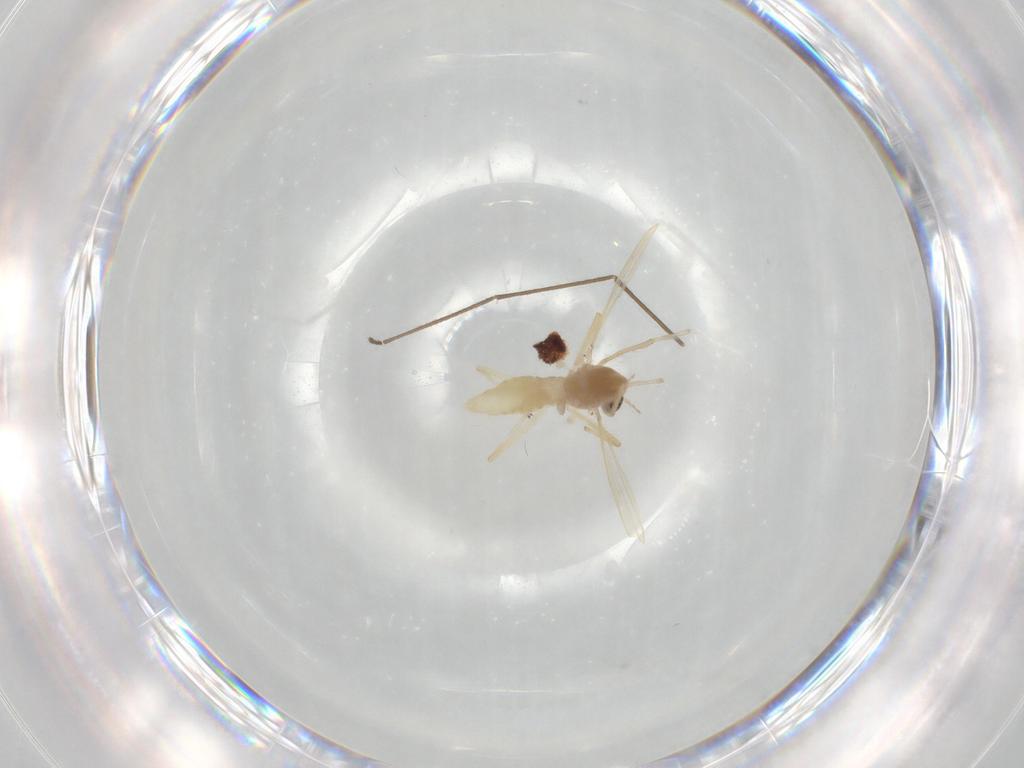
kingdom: Animalia
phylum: Arthropoda
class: Insecta
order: Diptera
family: Chironomidae
